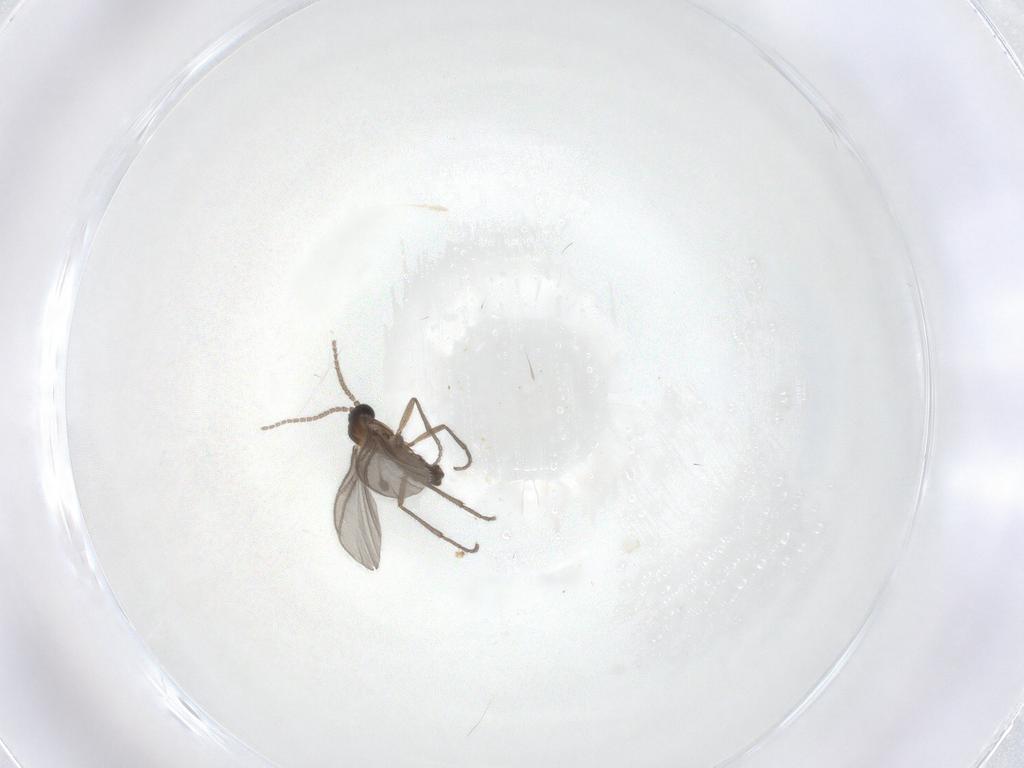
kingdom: Animalia
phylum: Arthropoda
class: Insecta
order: Diptera
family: Sciaridae
